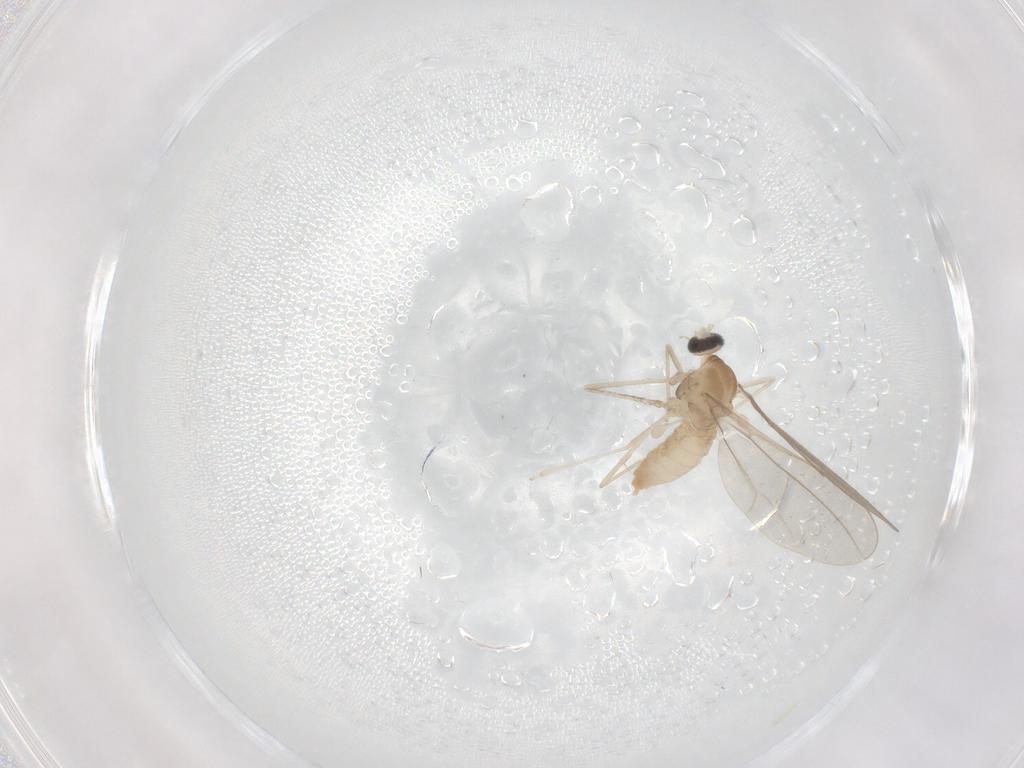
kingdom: Animalia
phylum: Arthropoda
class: Insecta
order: Diptera
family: Cecidomyiidae
